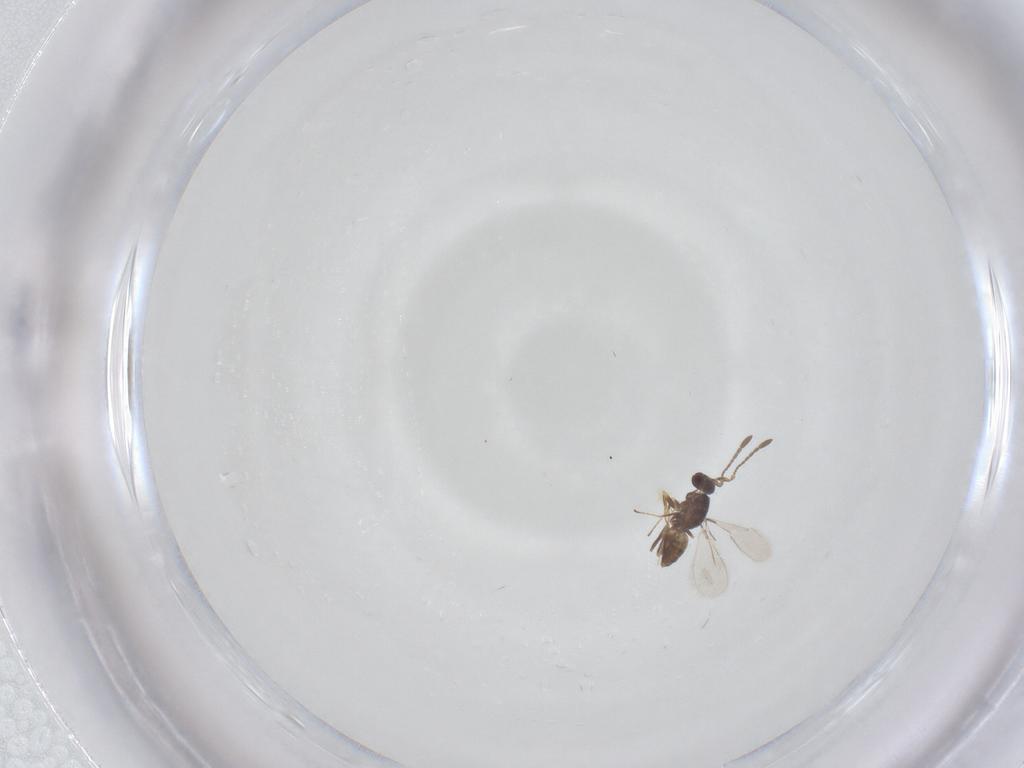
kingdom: Animalia
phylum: Arthropoda
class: Insecta
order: Hymenoptera
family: Mymaridae
